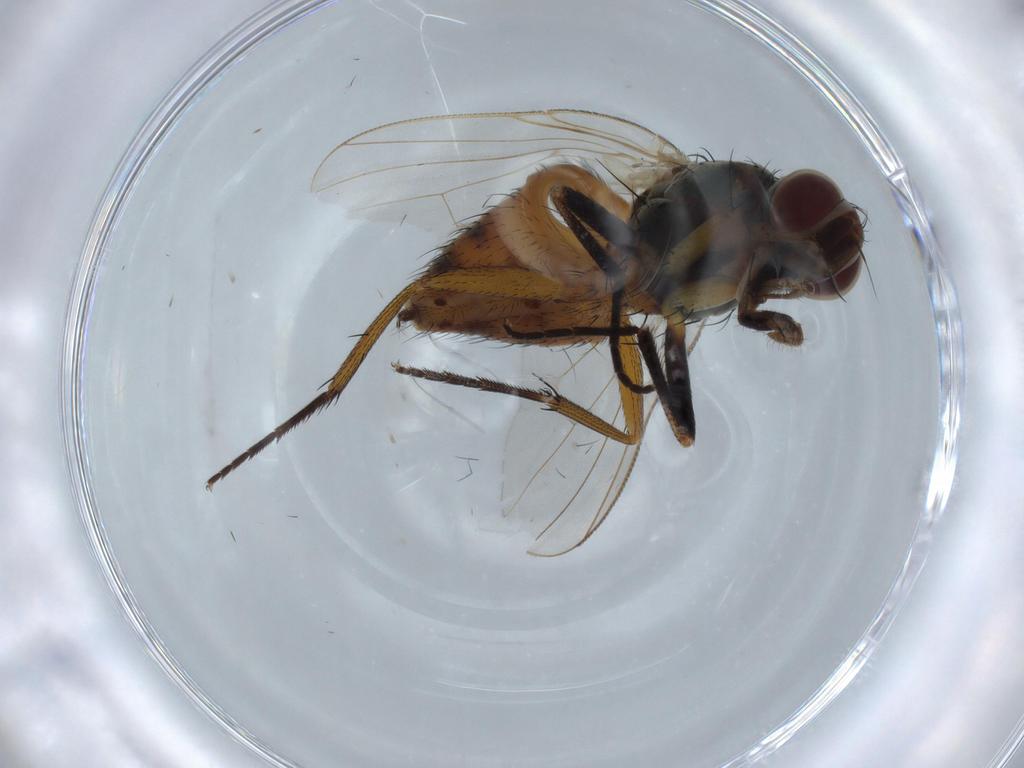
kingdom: Animalia
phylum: Arthropoda
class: Insecta
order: Diptera
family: Muscidae
